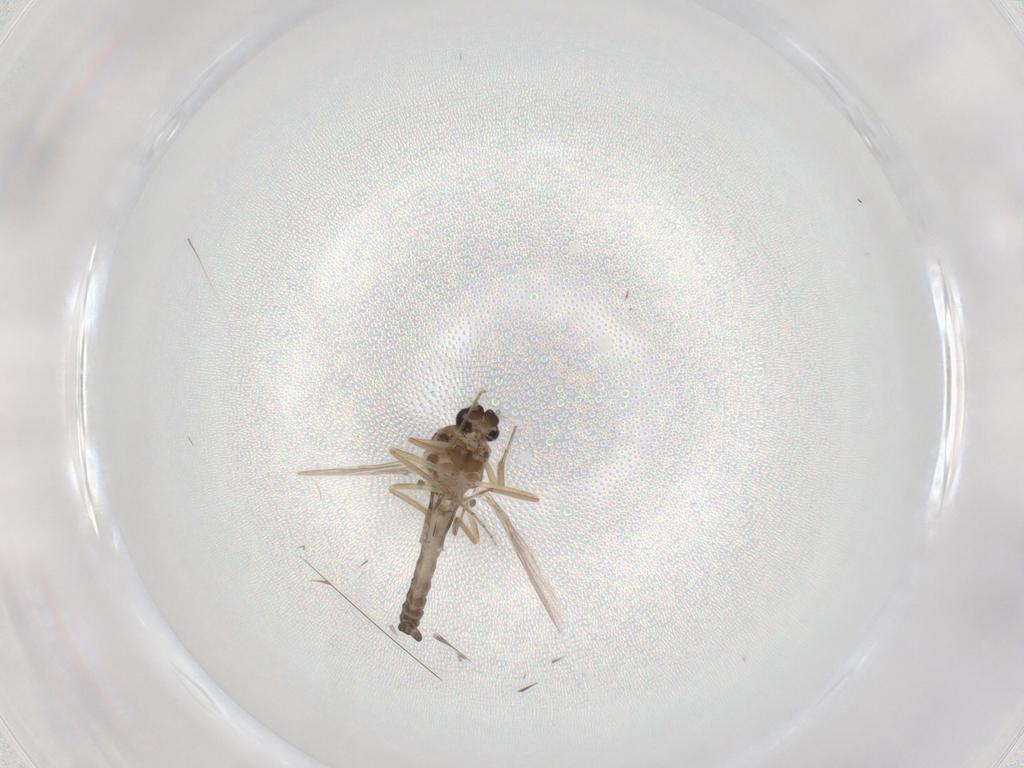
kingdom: Animalia
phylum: Arthropoda
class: Insecta
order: Diptera
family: Ceratopogonidae
